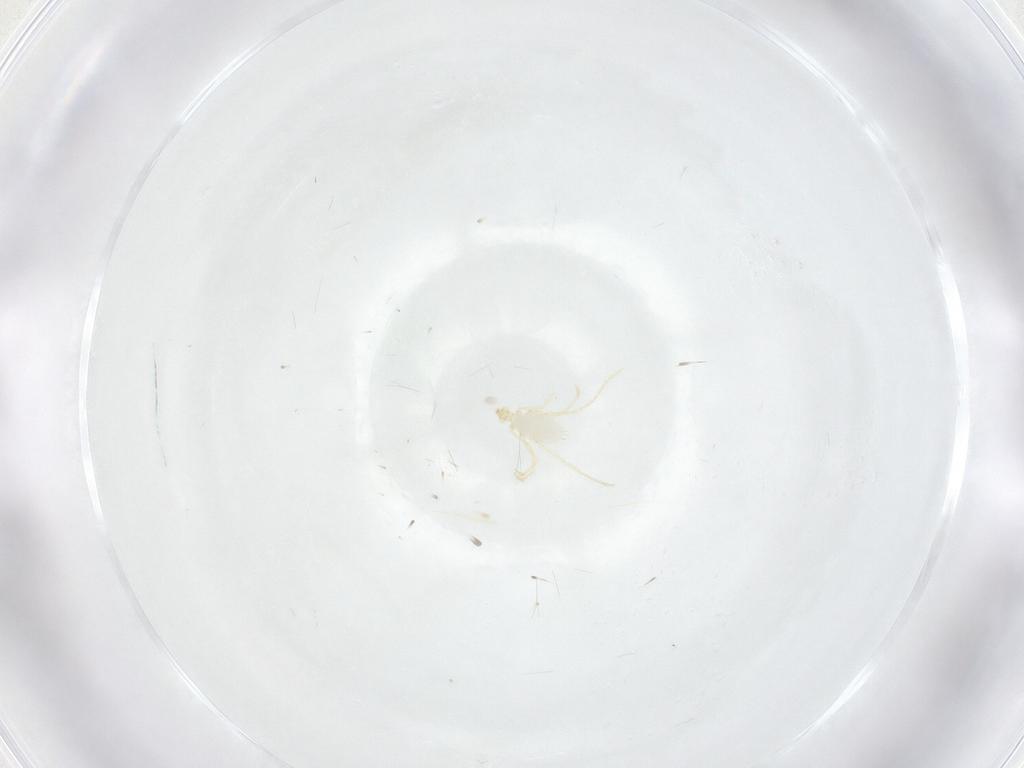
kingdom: Animalia
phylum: Arthropoda
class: Arachnida
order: Trombidiformes
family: Erythraeidae
